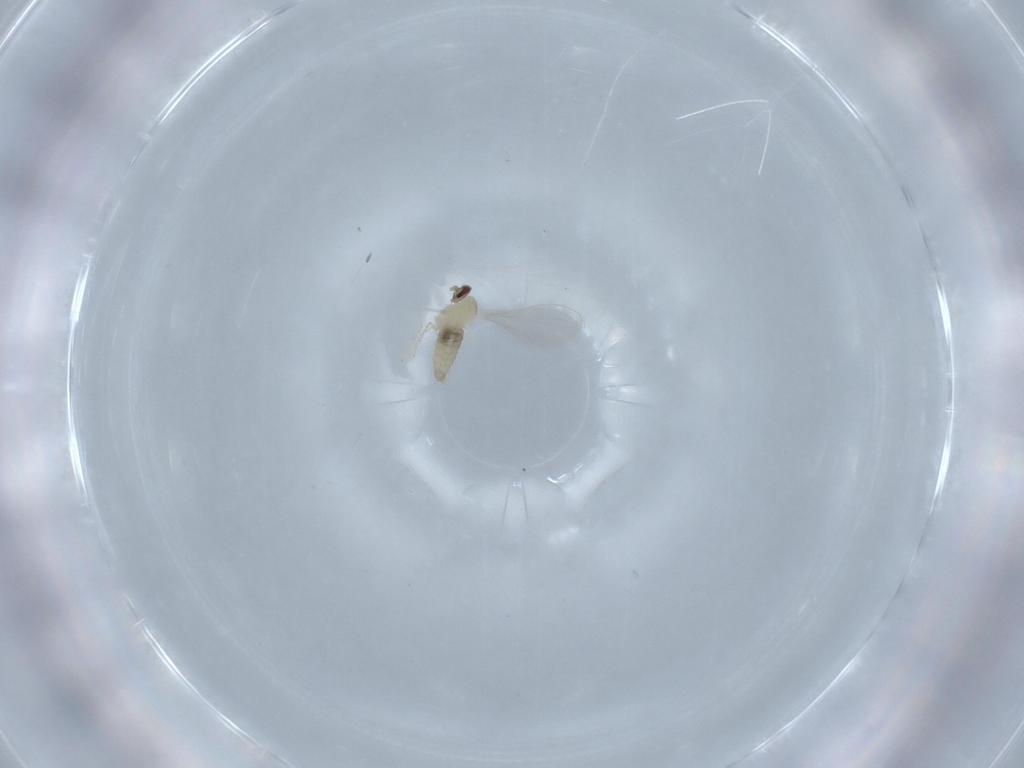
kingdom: Animalia
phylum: Arthropoda
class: Insecta
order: Diptera
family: Cecidomyiidae
